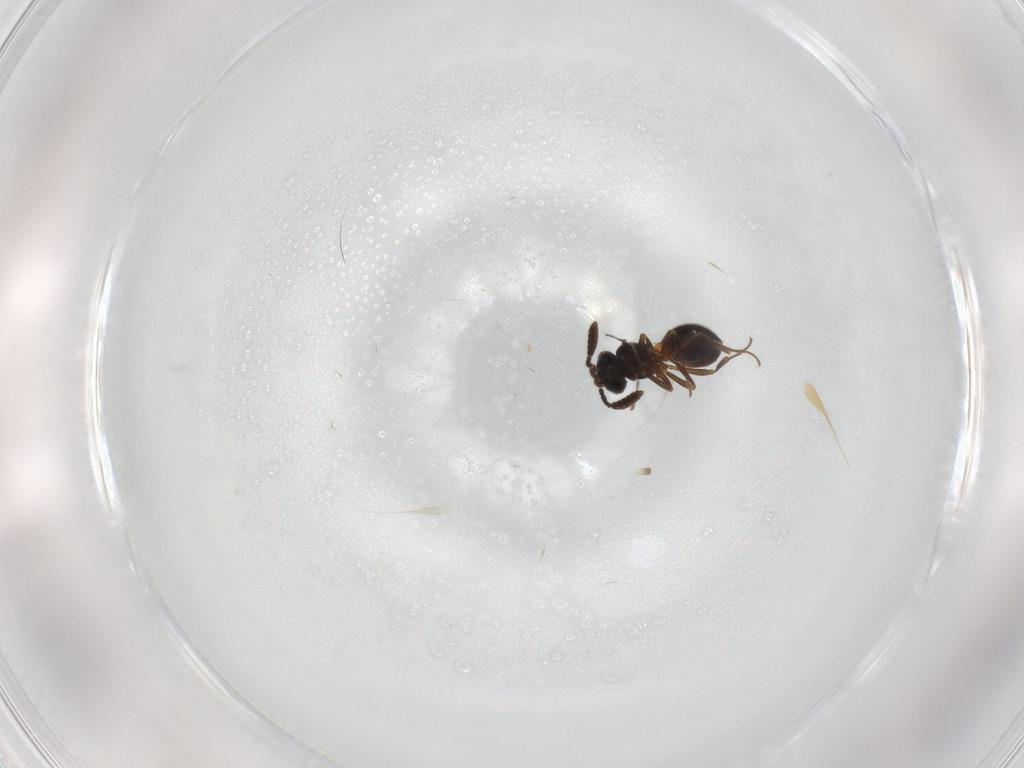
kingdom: Animalia
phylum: Arthropoda
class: Insecta
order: Hymenoptera
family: Scelionidae
